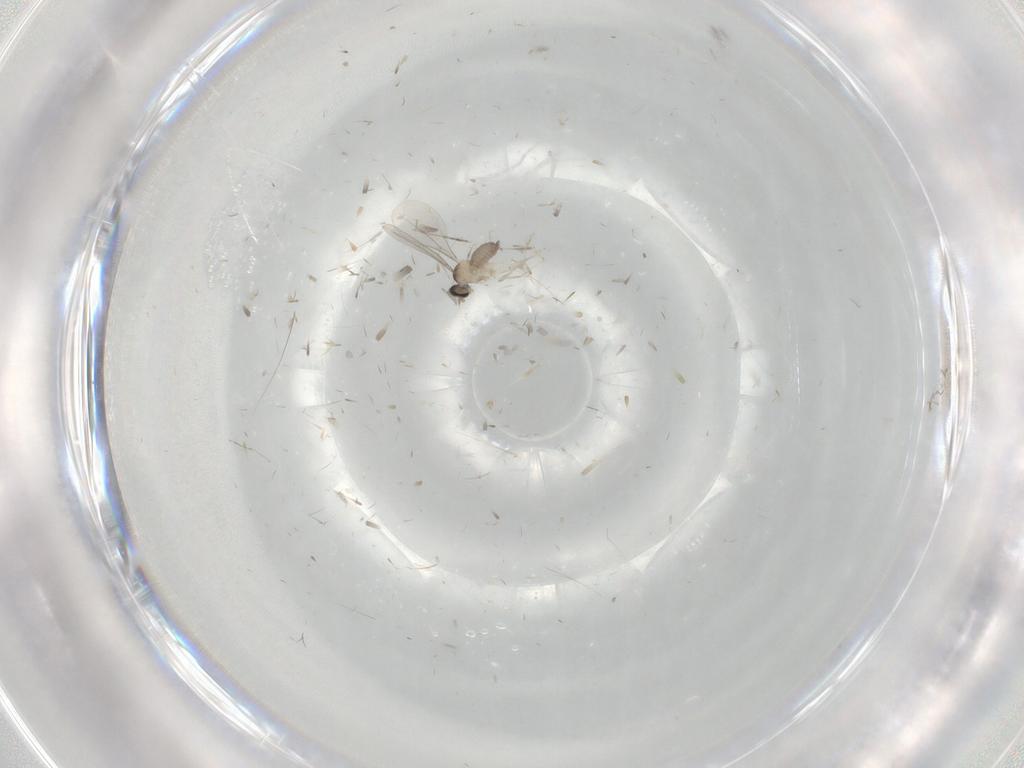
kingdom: Animalia
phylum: Arthropoda
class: Insecta
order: Diptera
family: Cecidomyiidae
